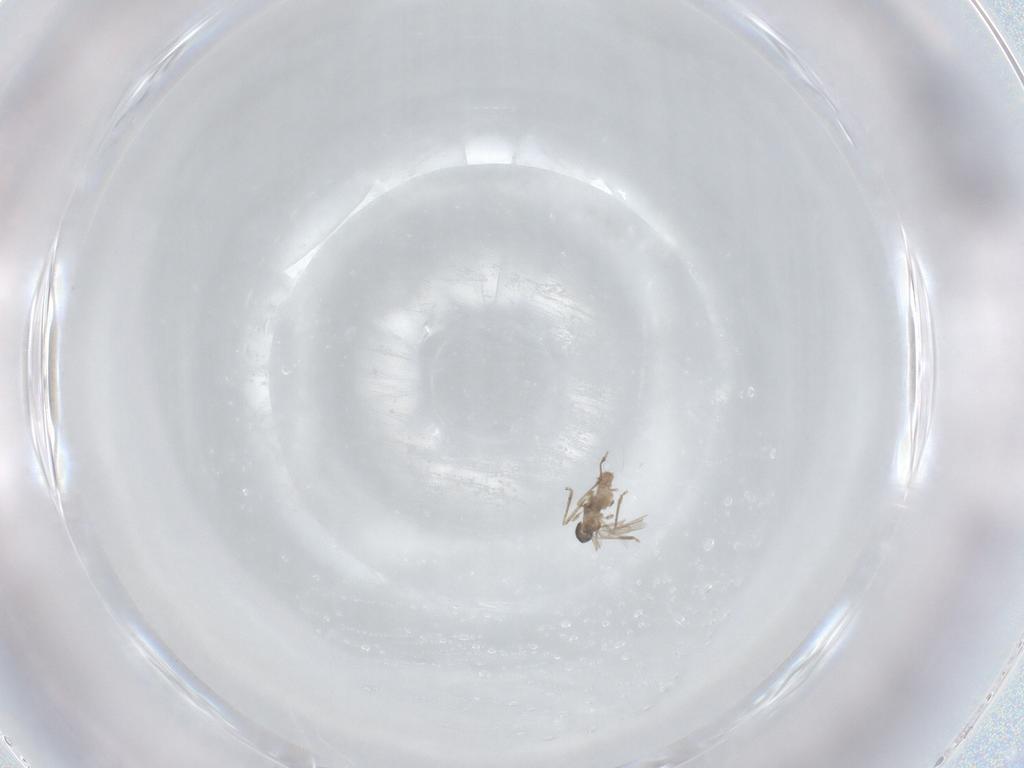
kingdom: Animalia
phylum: Arthropoda
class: Insecta
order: Diptera
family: Cecidomyiidae
